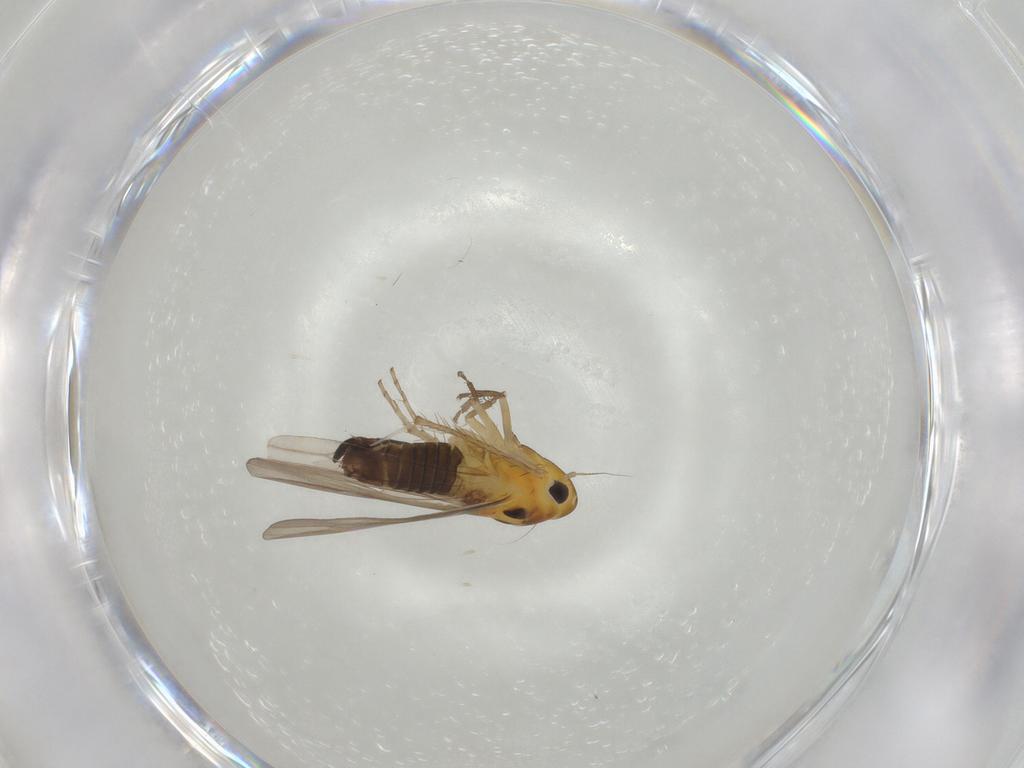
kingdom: Animalia
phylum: Arthropoda
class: Insecta
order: Hemiptera
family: Cicadellidae
